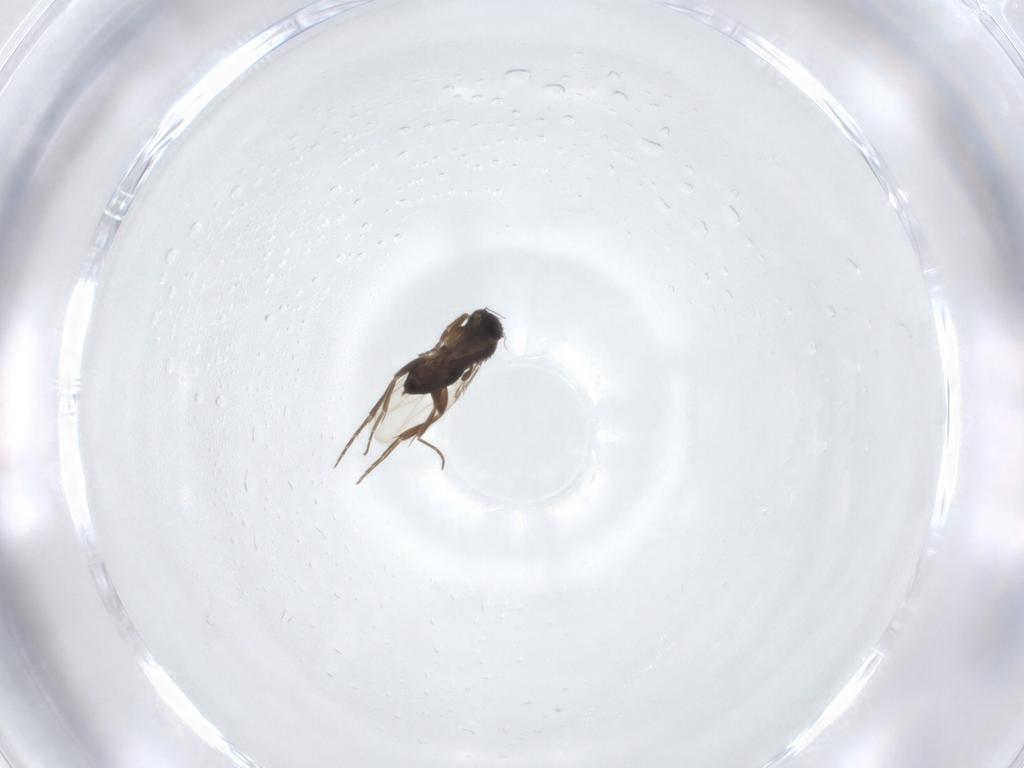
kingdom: Animalia
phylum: Arthropoda
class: Insecta
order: Diptera
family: Phoridae
